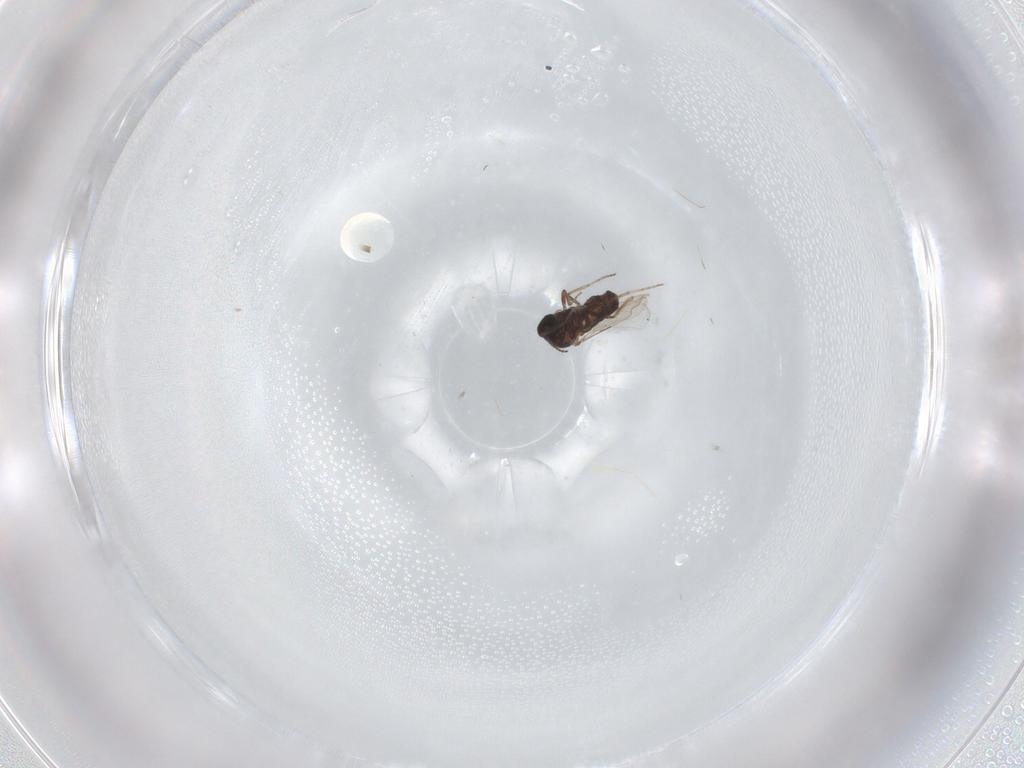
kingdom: Animalia
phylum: Arthropoda
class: Insecta
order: Diptera
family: Ceratopogonidae
